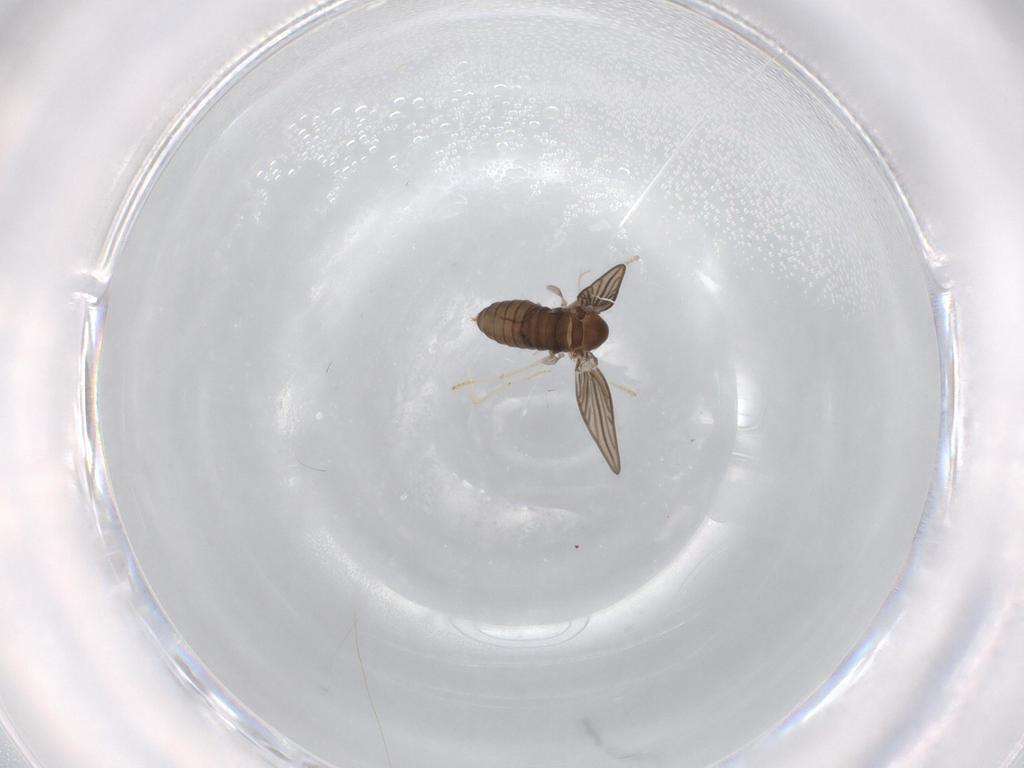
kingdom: Animalia
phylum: Arthropoda
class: Insecta
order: Diptera
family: Psychodidae
